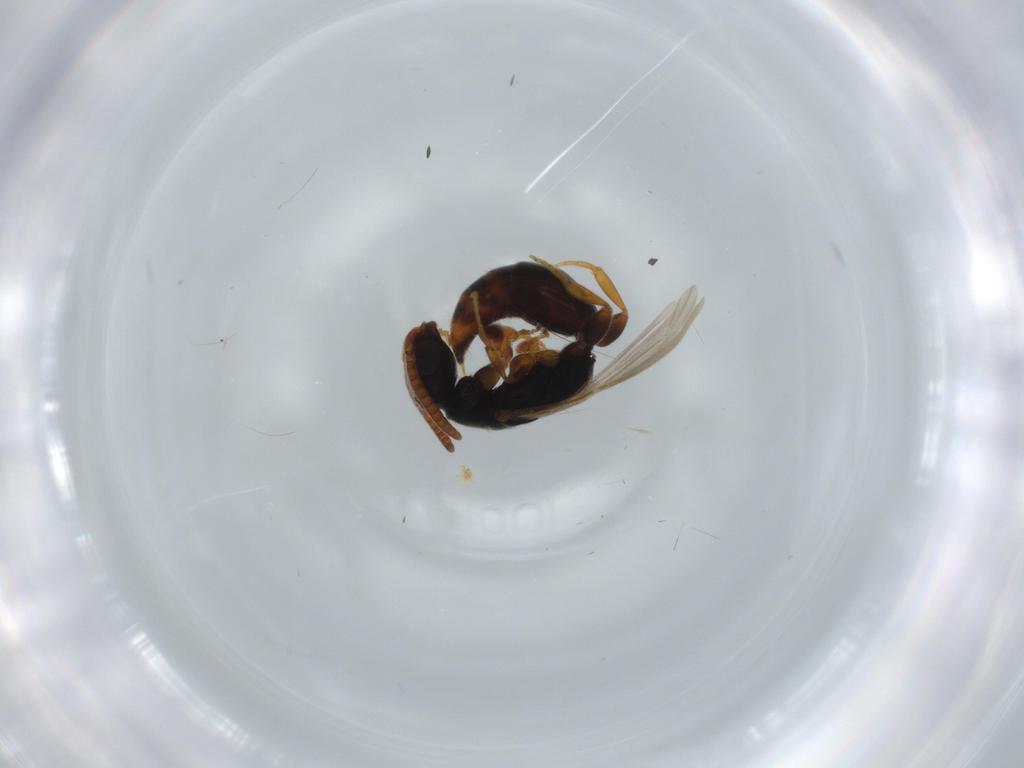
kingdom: Animalia
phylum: Arthropoda
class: Insecta
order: Hymenoptera
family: Bethylidae
